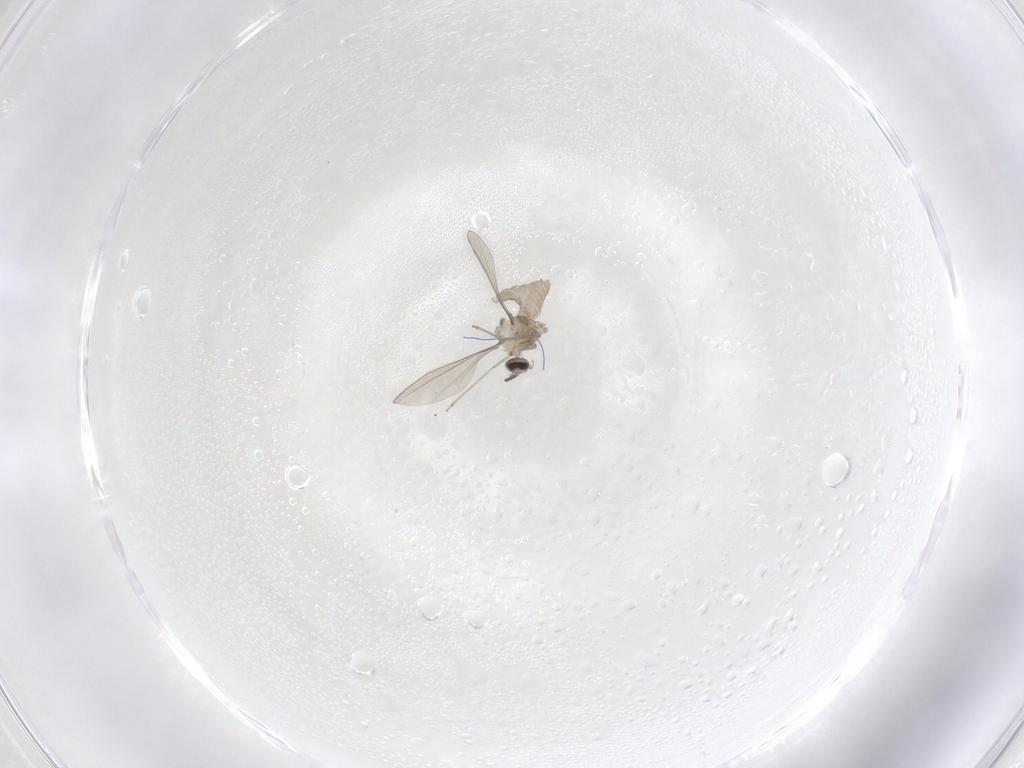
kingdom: Animalia
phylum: Arthropoda
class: Insecta
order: Diptera
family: Cecidomyiidae
